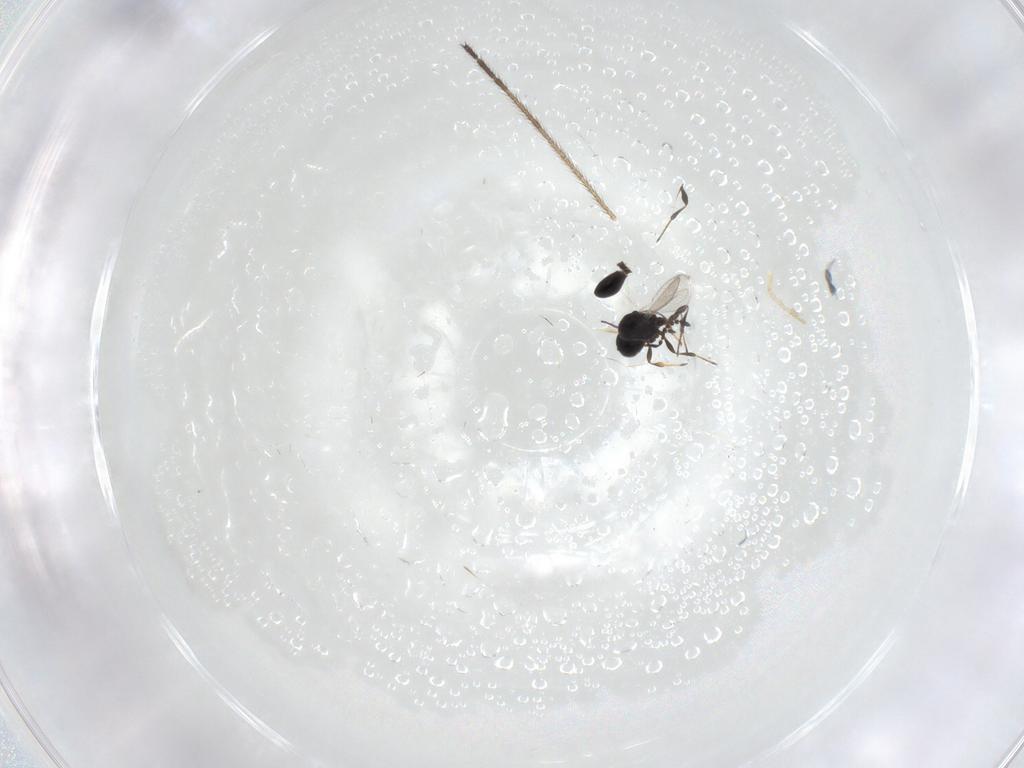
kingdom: Animalia
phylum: Arthropoda
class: Insecta
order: Hymenoptera
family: Platygastridae
